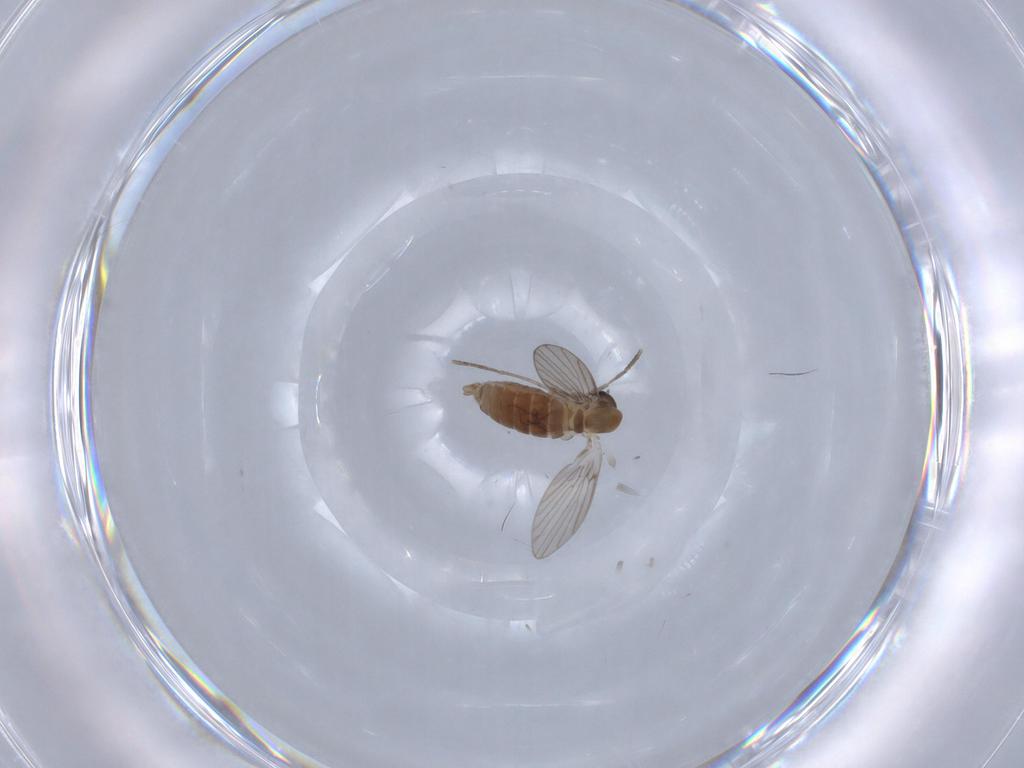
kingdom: Animalia
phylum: Arthropoda
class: Insecta
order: Diptera
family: Psychodidae
